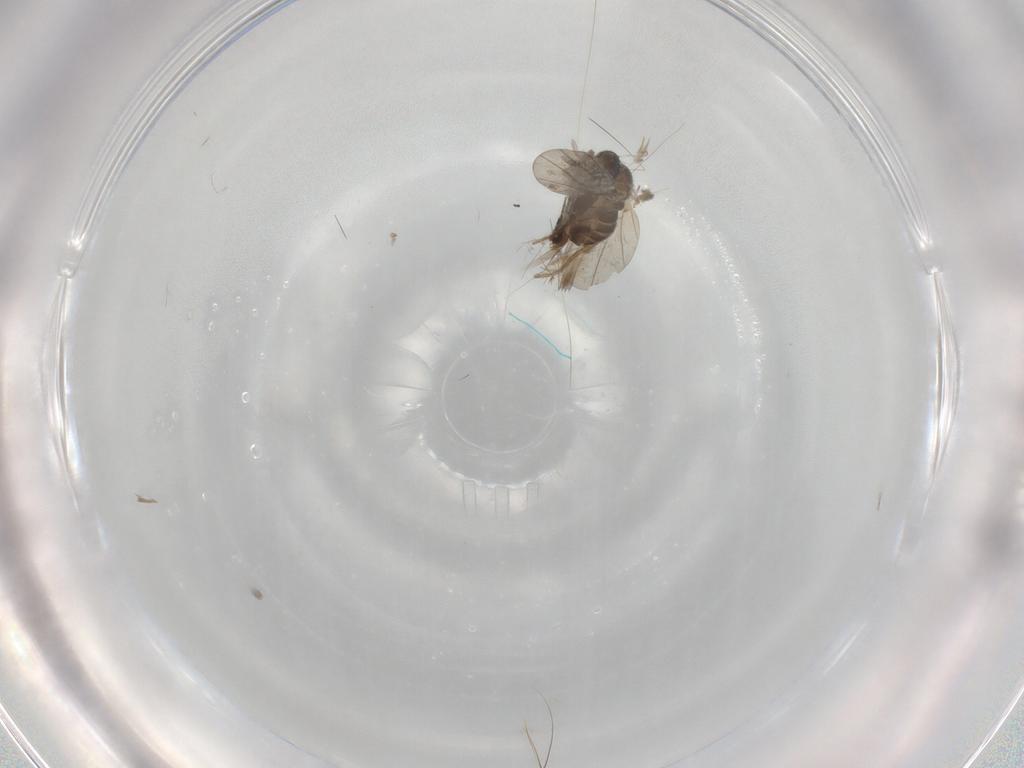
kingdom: Animalia
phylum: Arthropoda
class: Insecta
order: Diptera
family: Phoridae
